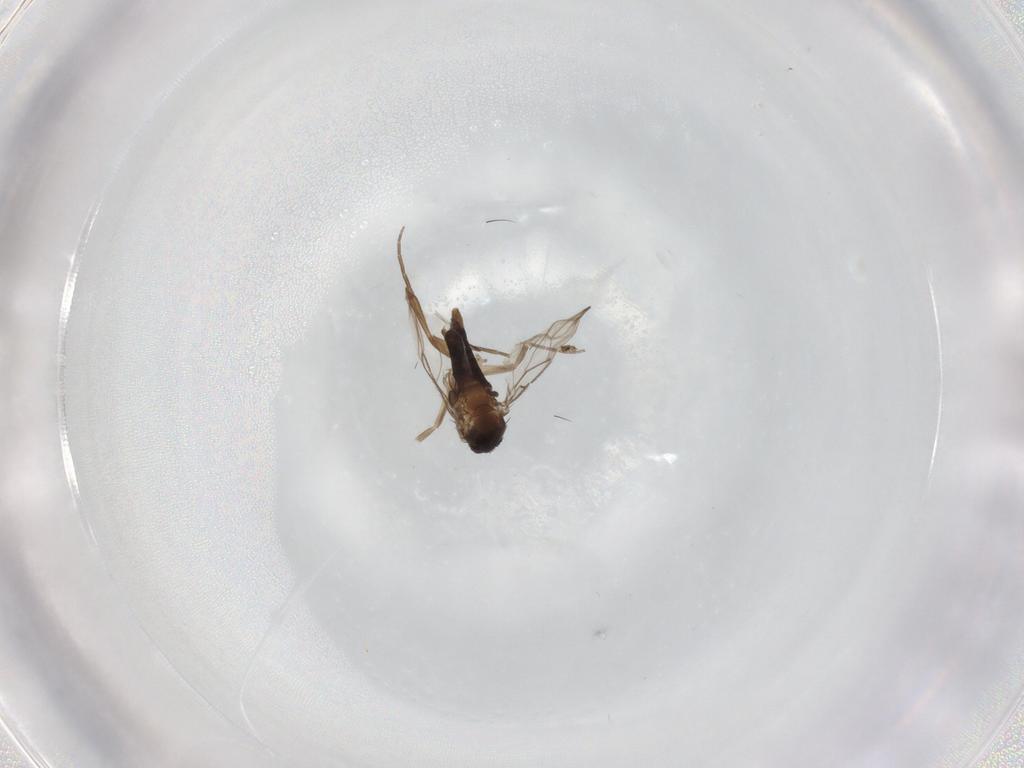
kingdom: Animalia
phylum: Arthropoda
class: Insecta
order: Diptera
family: Phoridae
